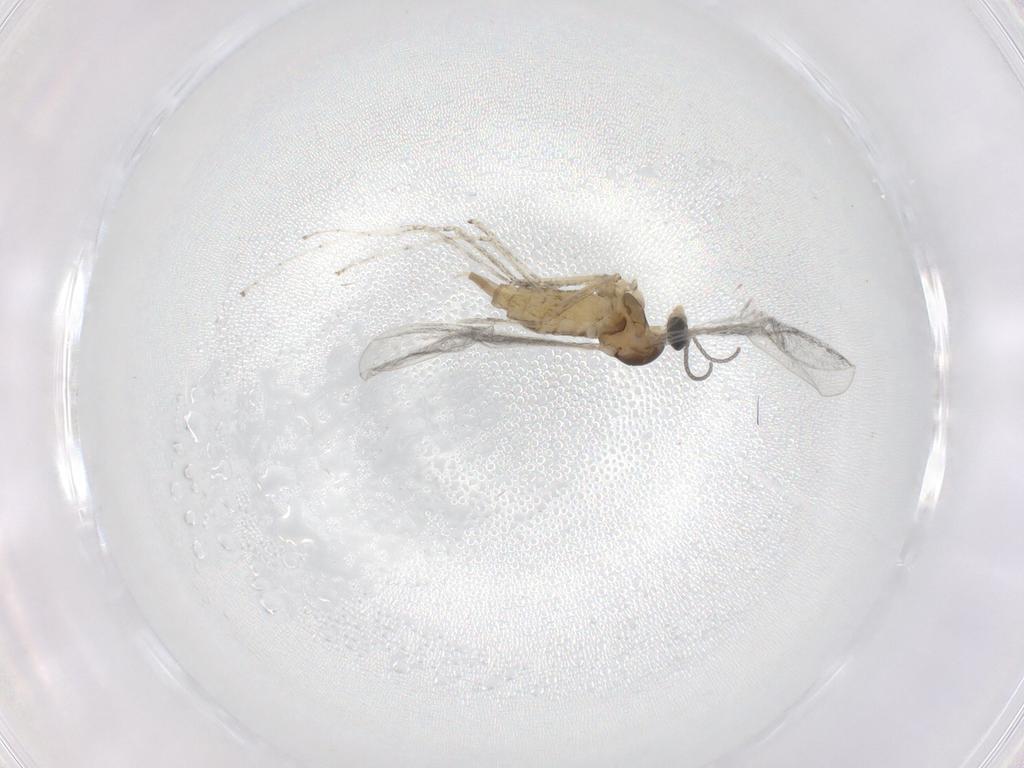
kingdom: Animalia
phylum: Arthropoda
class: Insecta
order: Diptera
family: Cecidomyiidae
